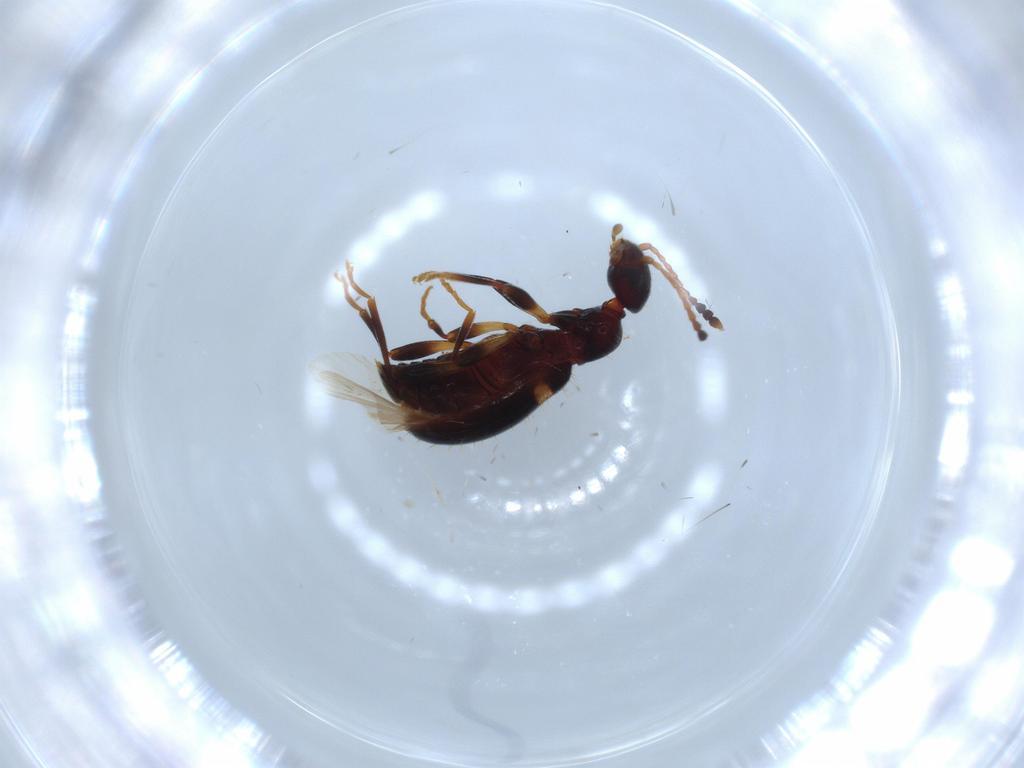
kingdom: Animalia
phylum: Arthropoda
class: Insecta
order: Coleoptera
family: Anthicidae
